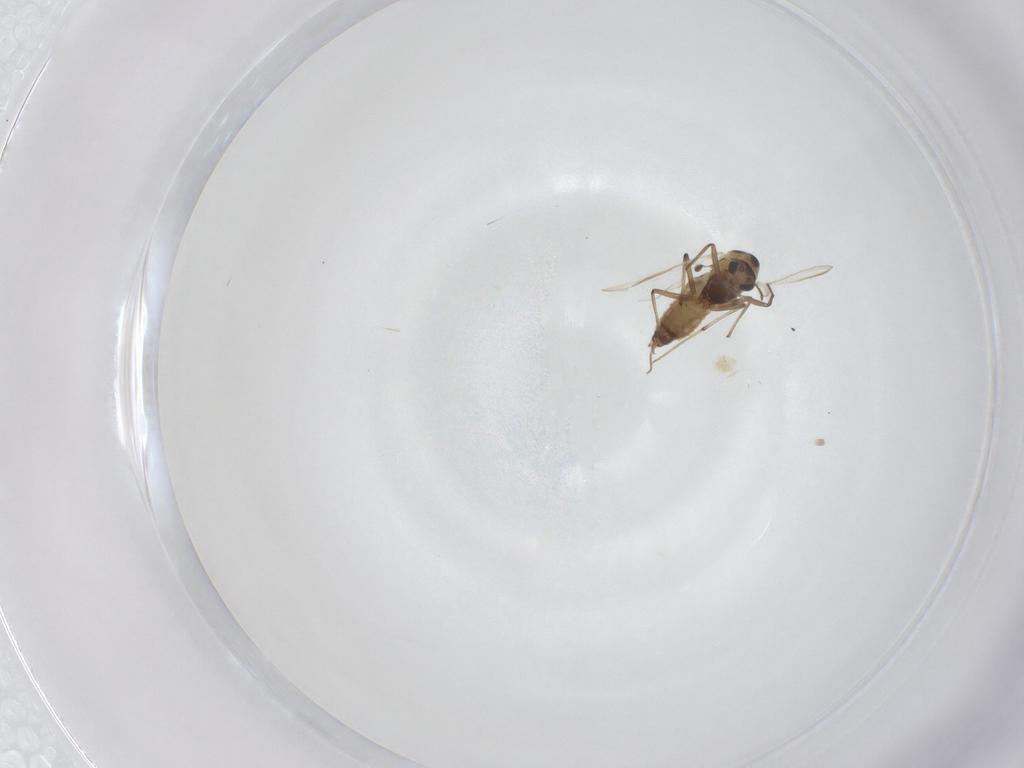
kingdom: Animalia
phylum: Arthropoda
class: Insecta
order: Diptera
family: Chironomidae
